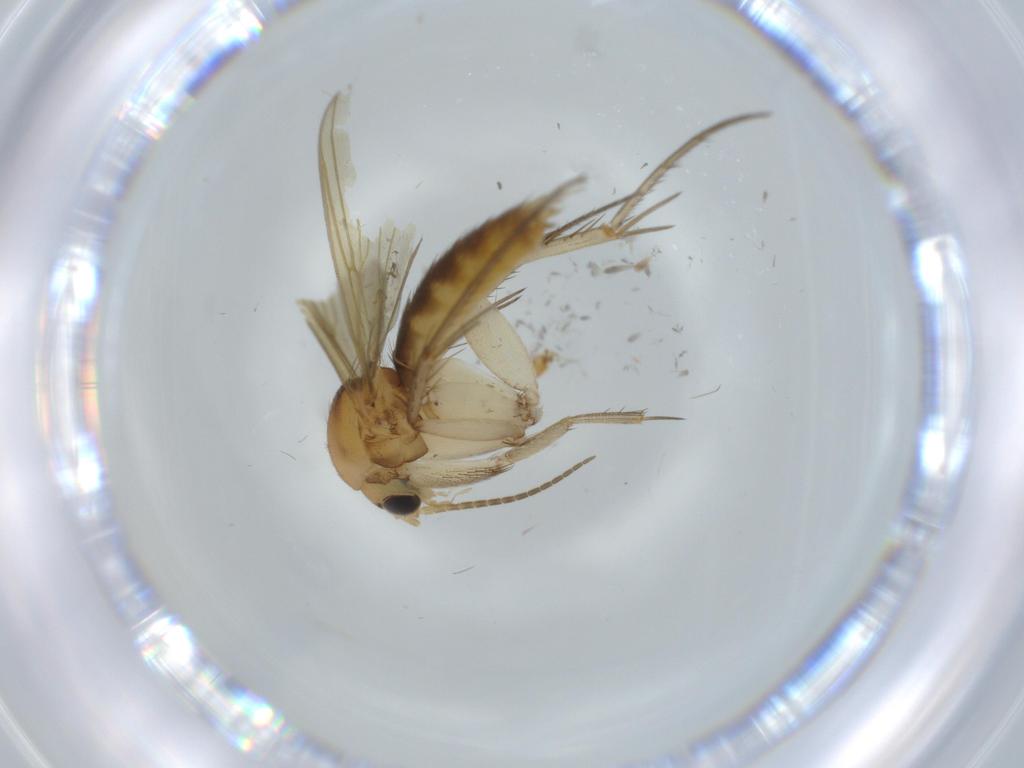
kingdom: Animalia
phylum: Arthropoda
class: Insecta
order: Diptera
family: Phoridae
